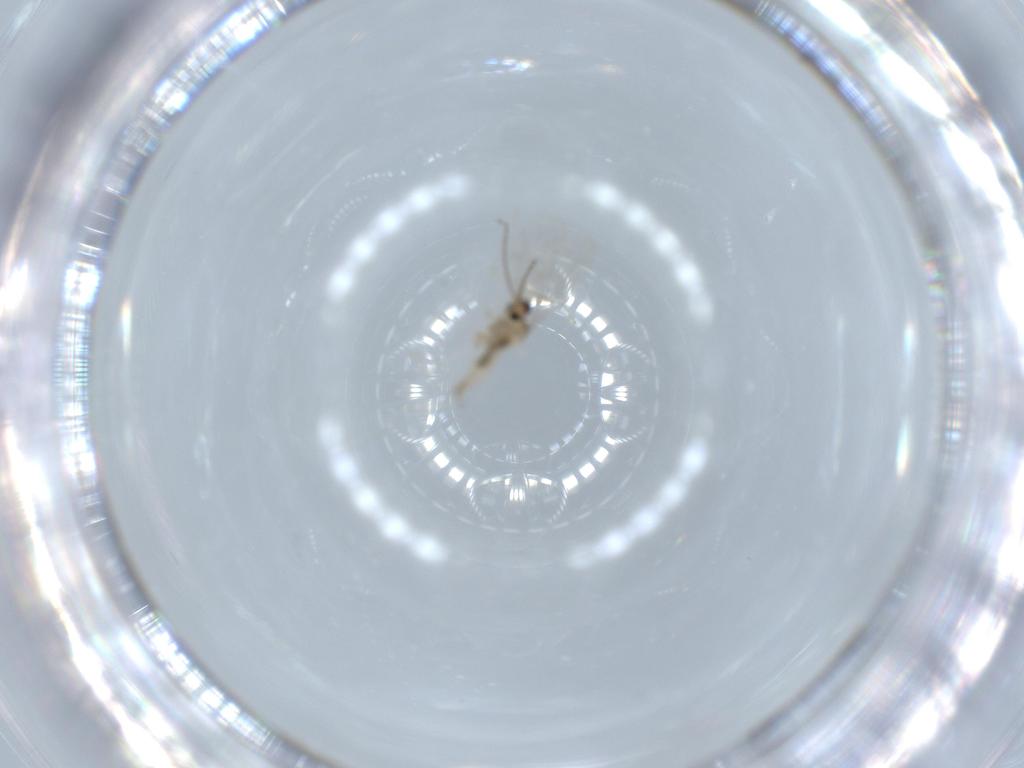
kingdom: Animalia
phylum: Arthropoda
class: Insecta
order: Diptera
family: Cecidomyiidae
